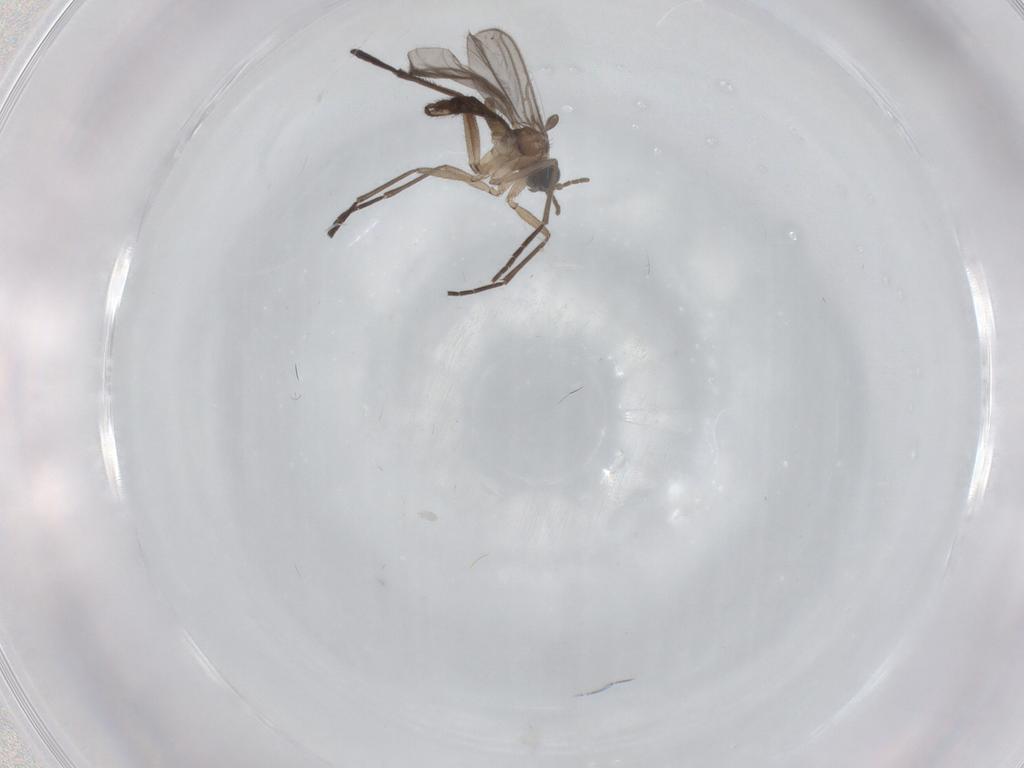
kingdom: Animalia
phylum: Arthropoda
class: Insecta
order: Diptera
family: Sciaridae
